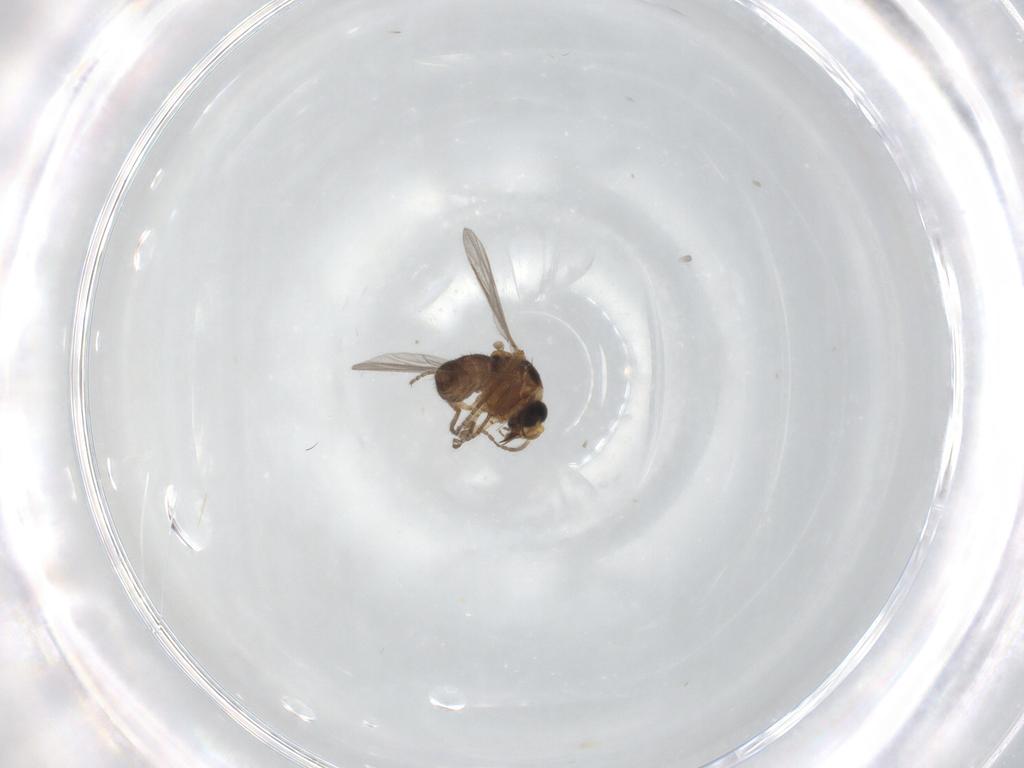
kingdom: Animalia
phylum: Arthropoda
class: Insecta
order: Diptera
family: Ceratopogonidae
